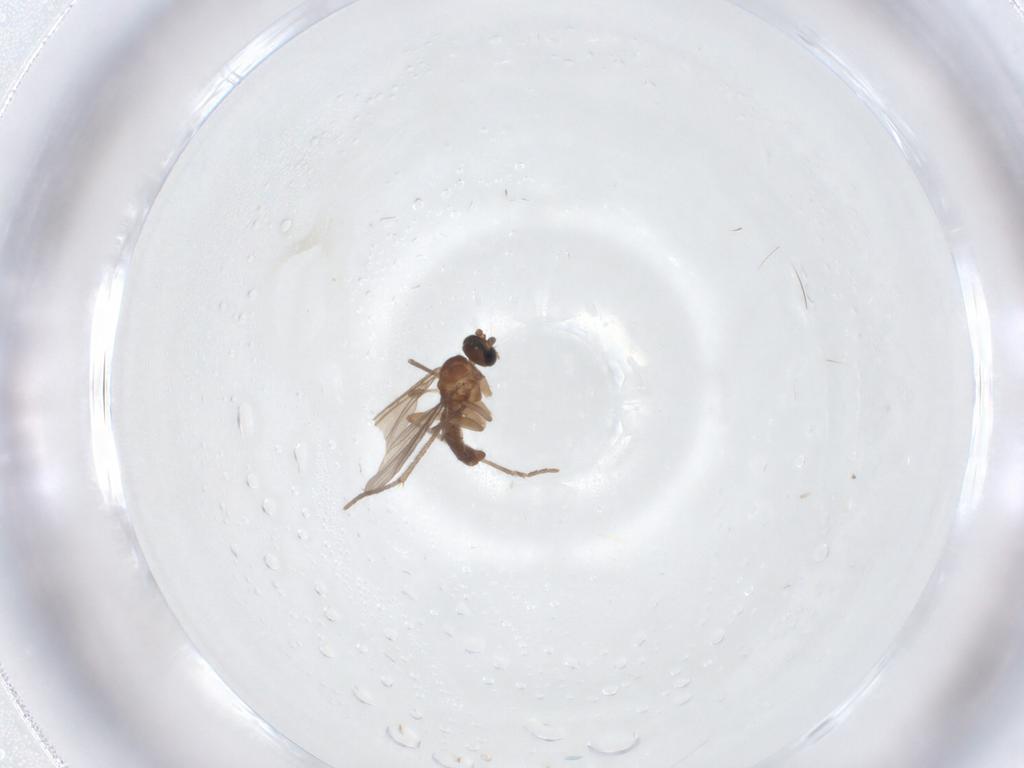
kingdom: Animalia
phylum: Arthropoda
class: Insecta
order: Diptera
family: Sciaridae
